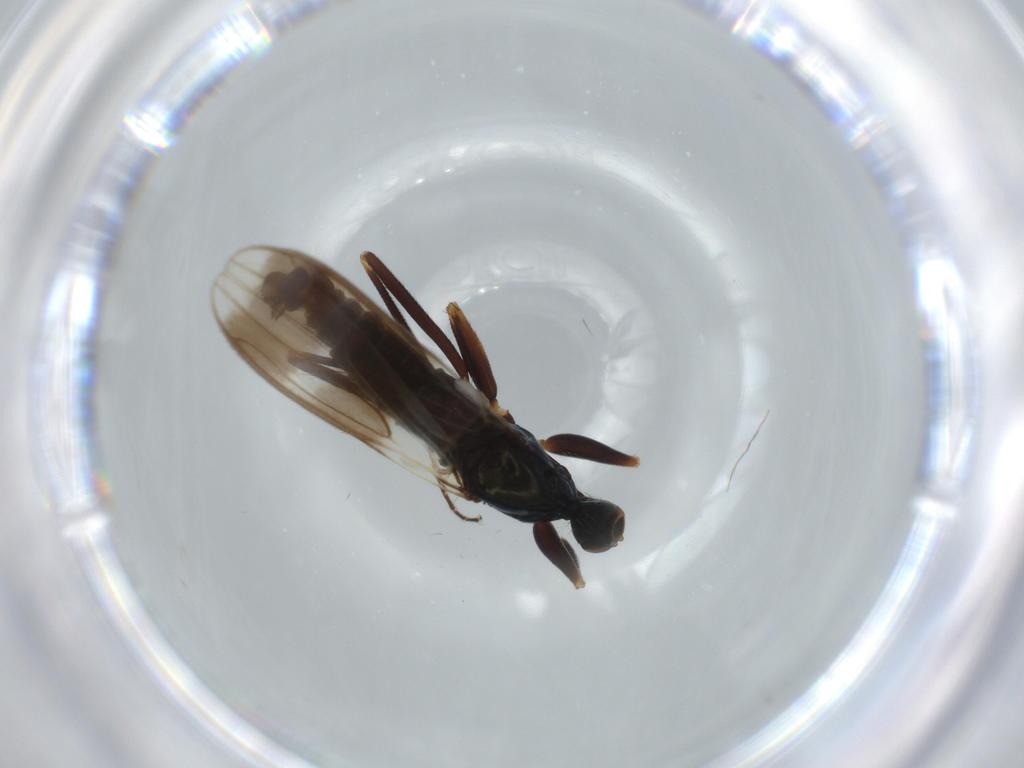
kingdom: Animalia
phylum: Arthropoda
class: Insecta
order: Diptera
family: Hybotidae
